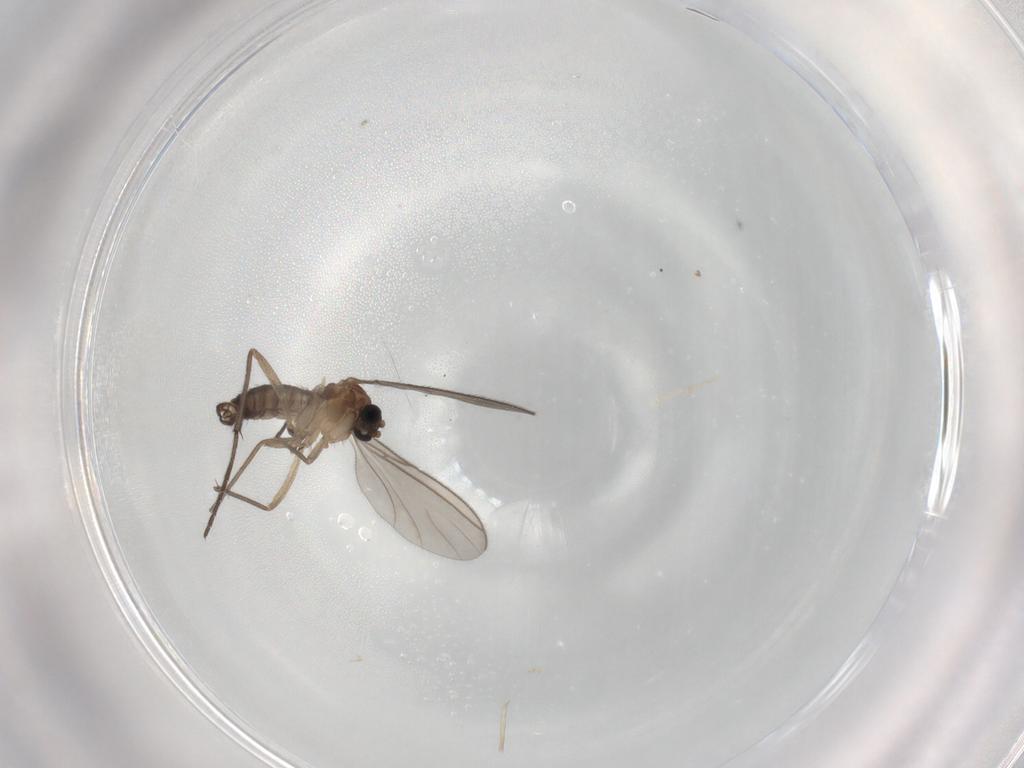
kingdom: Animalia
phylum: Arthropoda
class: Insecta
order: Diptera
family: Sciaridae
